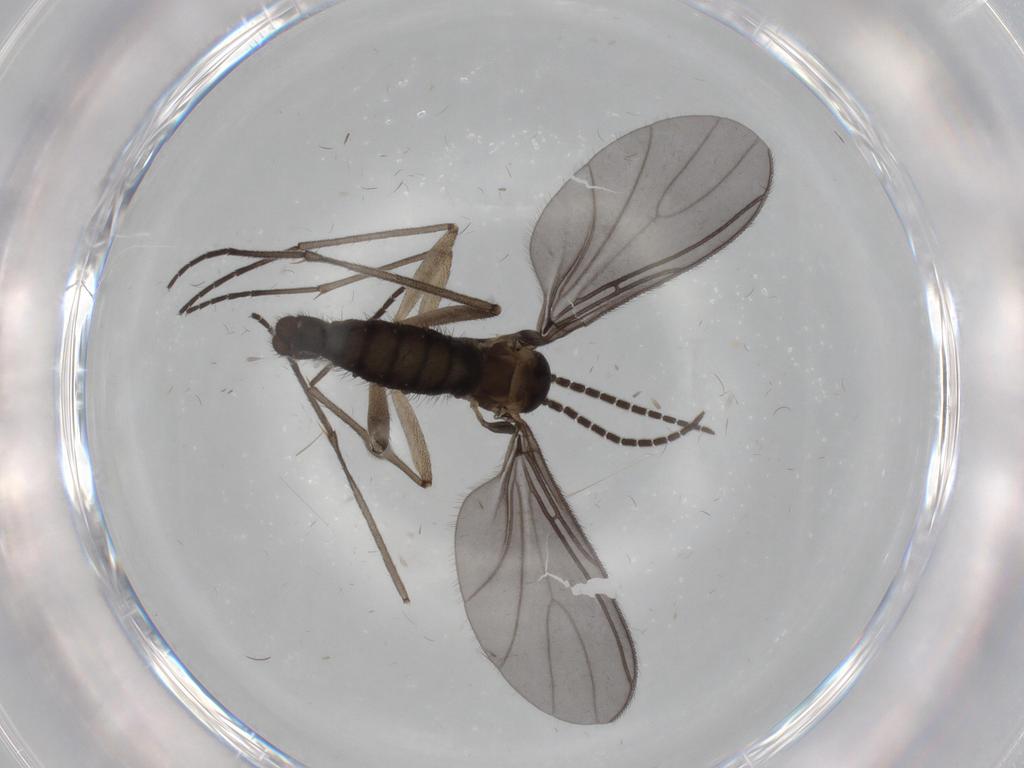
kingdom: Animalia
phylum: Arthropoda
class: Insecta
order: Diptera
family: Sciaridae
